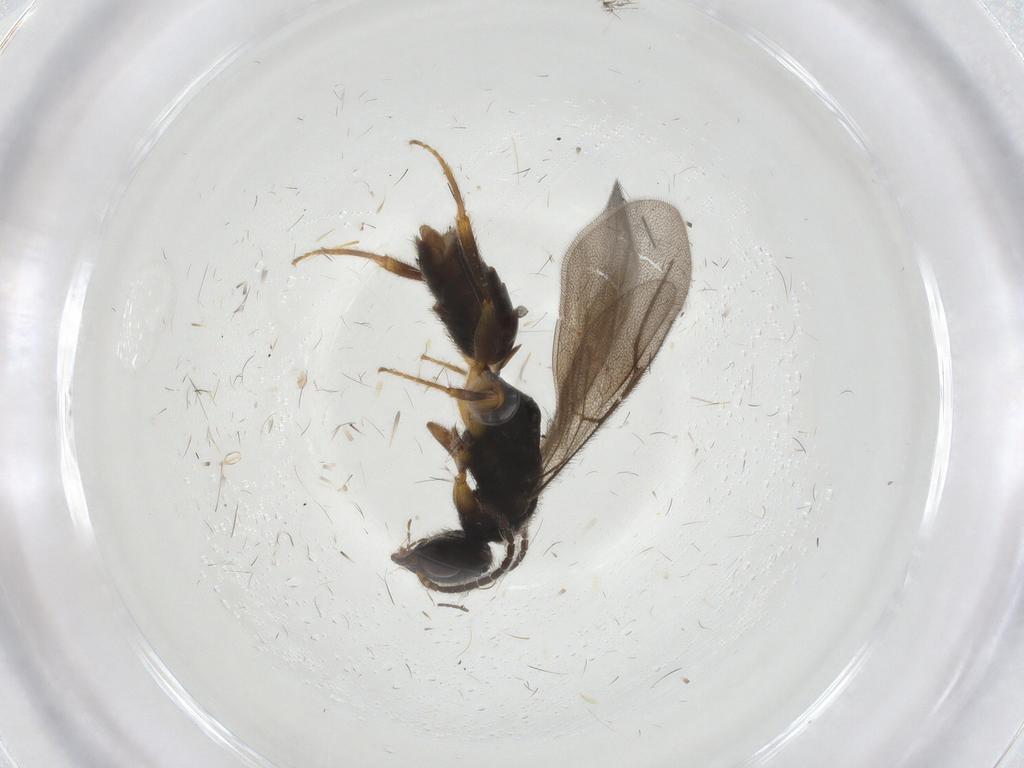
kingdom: Animalia
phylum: Arthropoda
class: Insecta
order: Hymenoptera
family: Bethylidae
